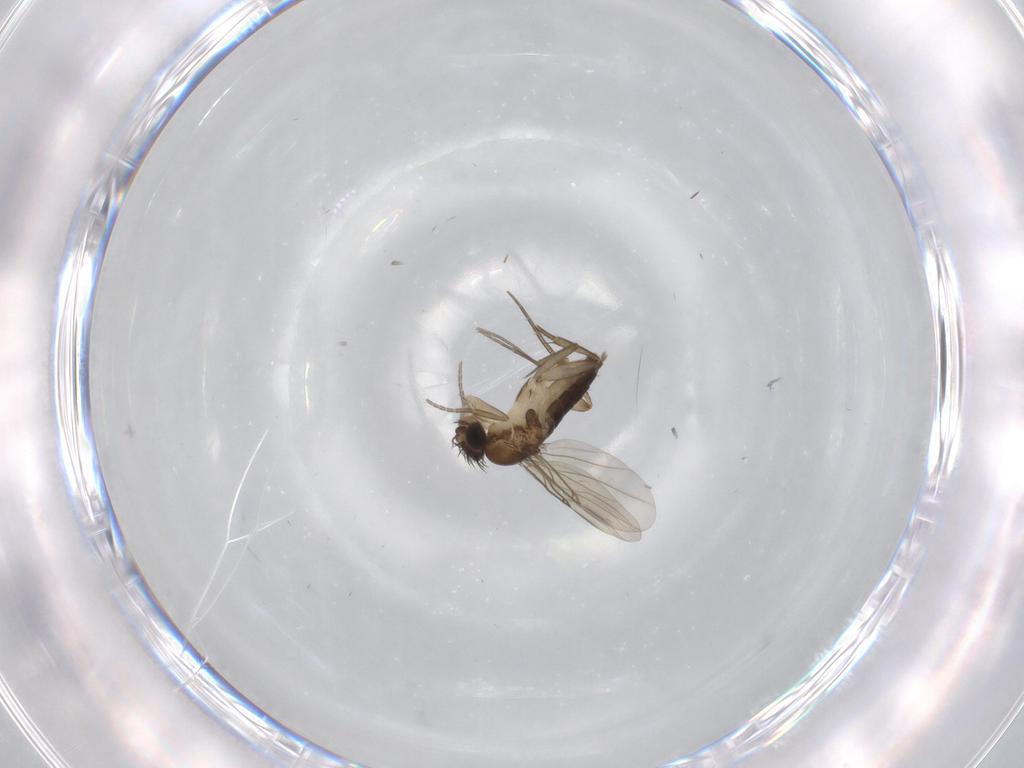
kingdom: Animalia
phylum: Arthropoda
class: Insecta
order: Diptera
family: Phoridae
